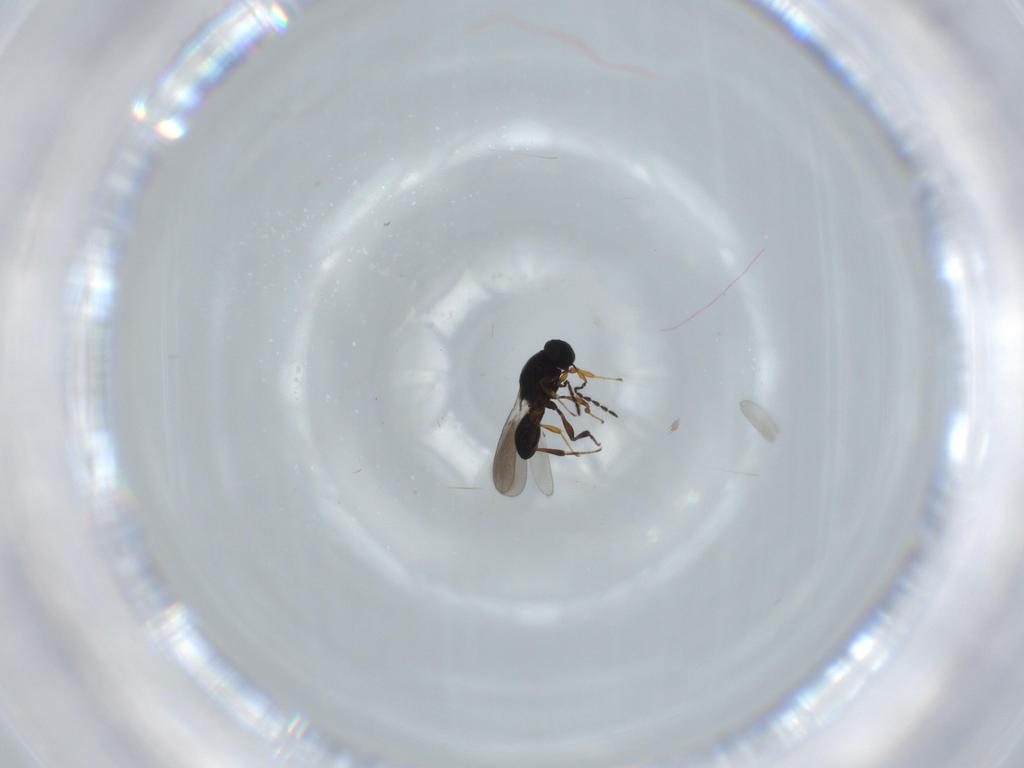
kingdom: Animalia
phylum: Arthropoda
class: Insecta
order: Hymenoptera
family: Platygastridae
